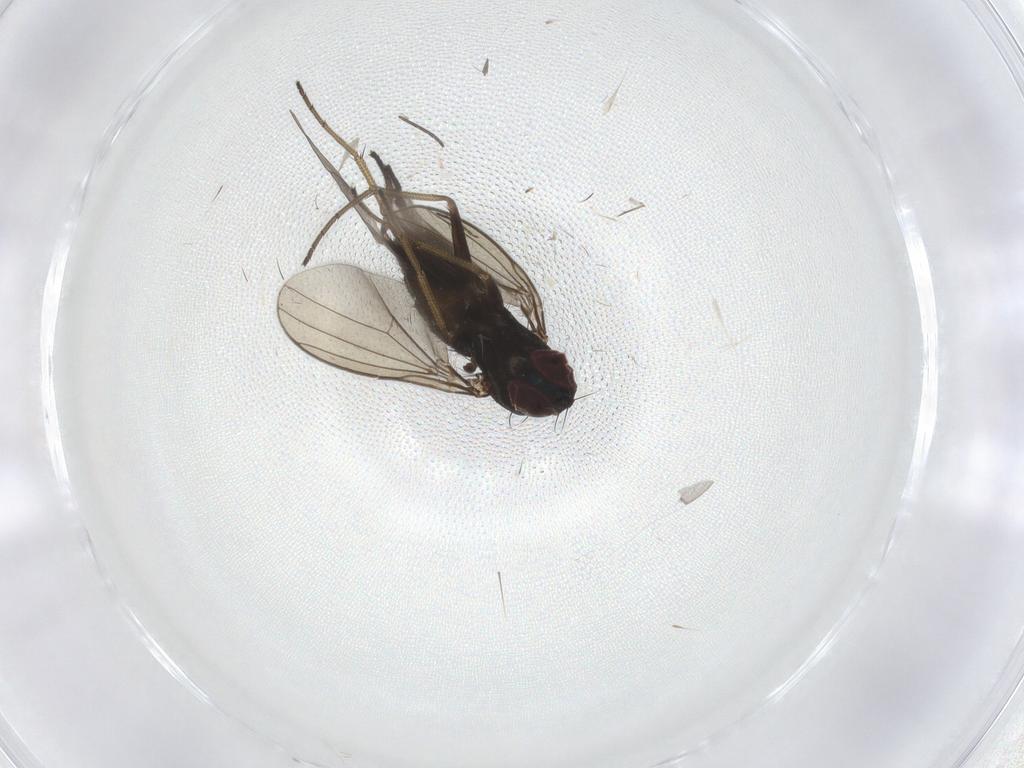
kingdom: Animalia
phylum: Arthropoda
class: Insecta
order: Diptera
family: Dolichopodidae
